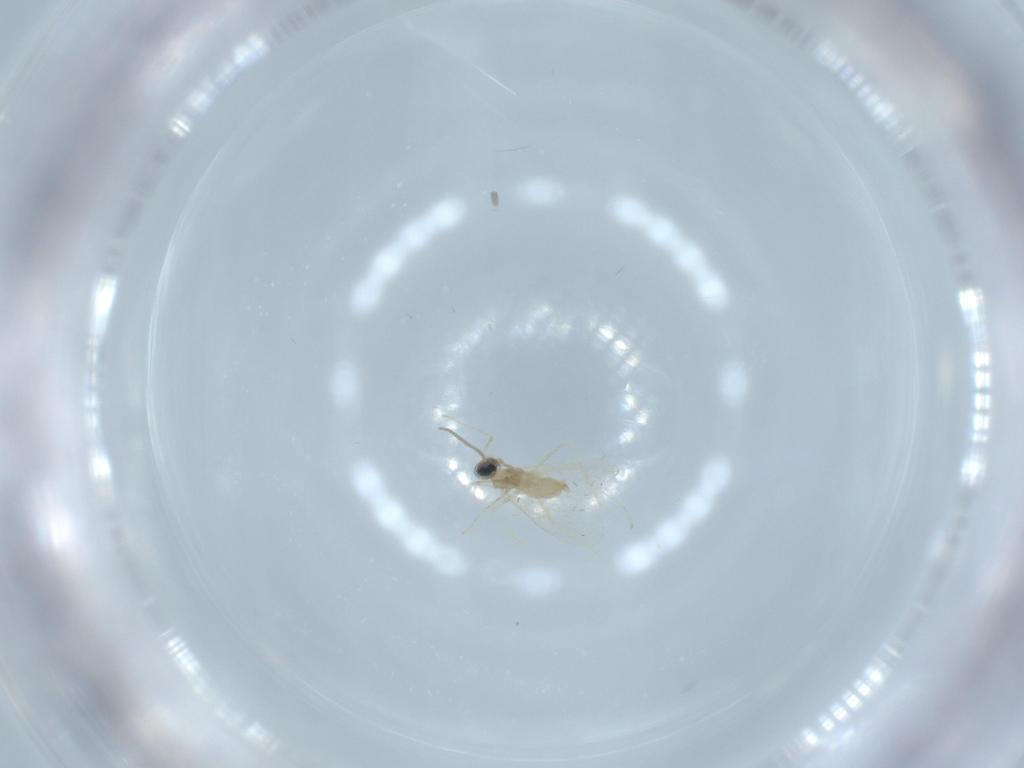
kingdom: Animalia
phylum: Arthropoda
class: Insecta
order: Diptera
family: Cecidomyiidae
